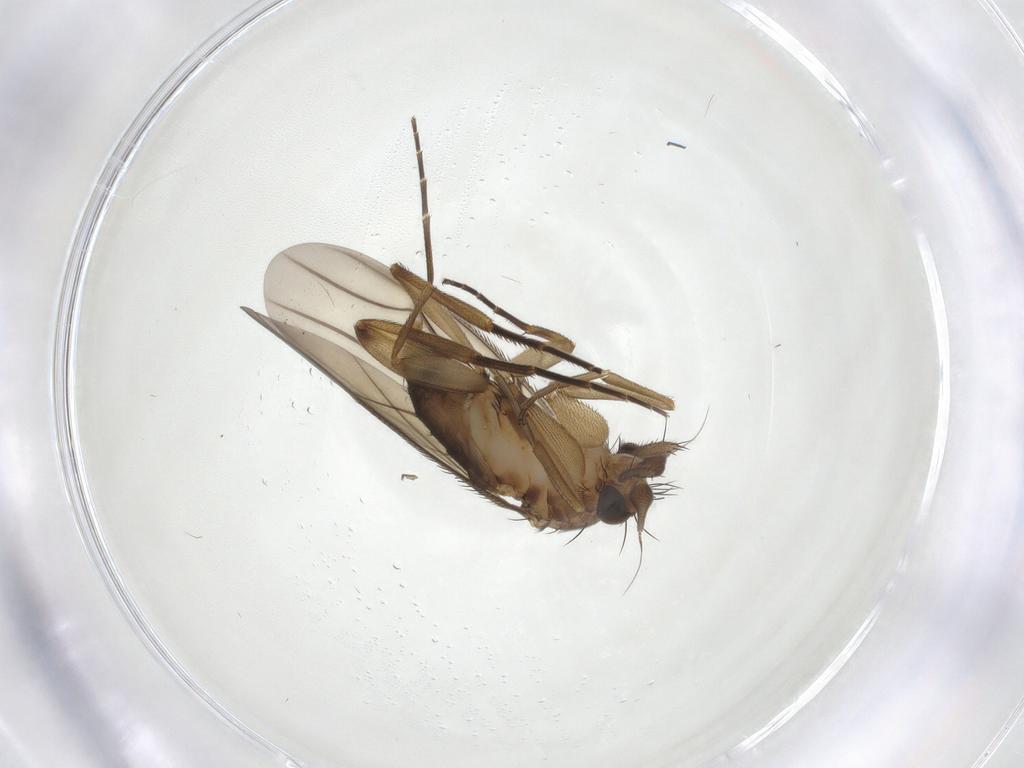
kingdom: Animalia
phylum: Arthropoda
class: Insecta
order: Diptera
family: Phoridae
